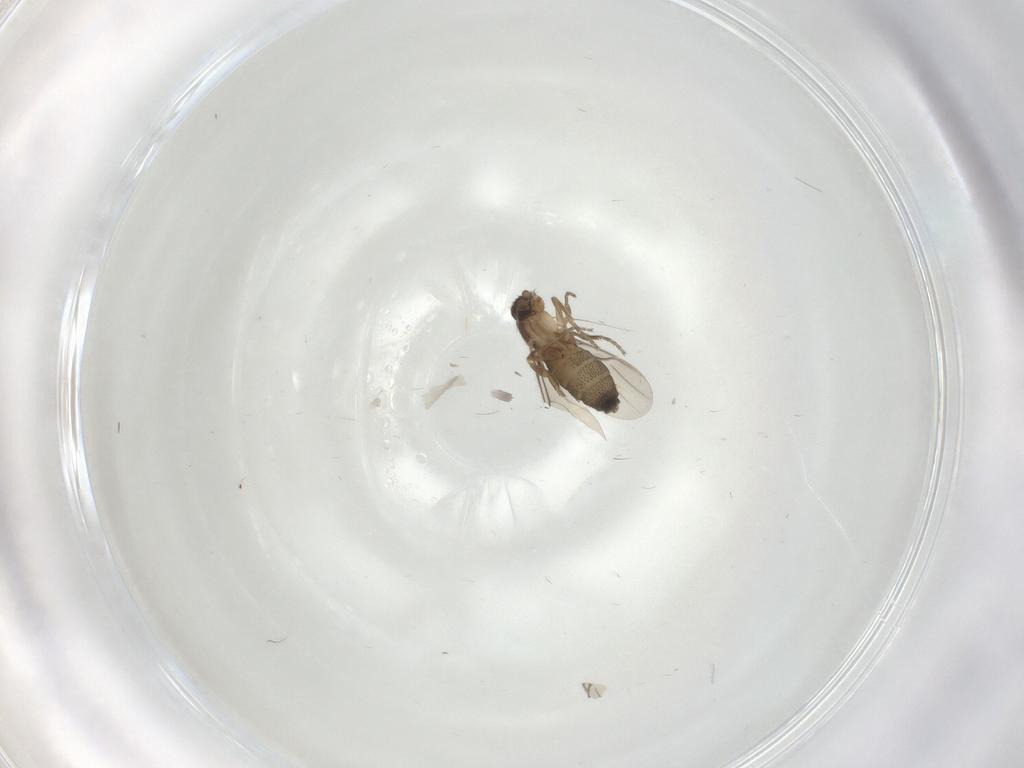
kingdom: Animalia
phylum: Arthropoda
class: Insecta
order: Diptera
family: Phoridae
